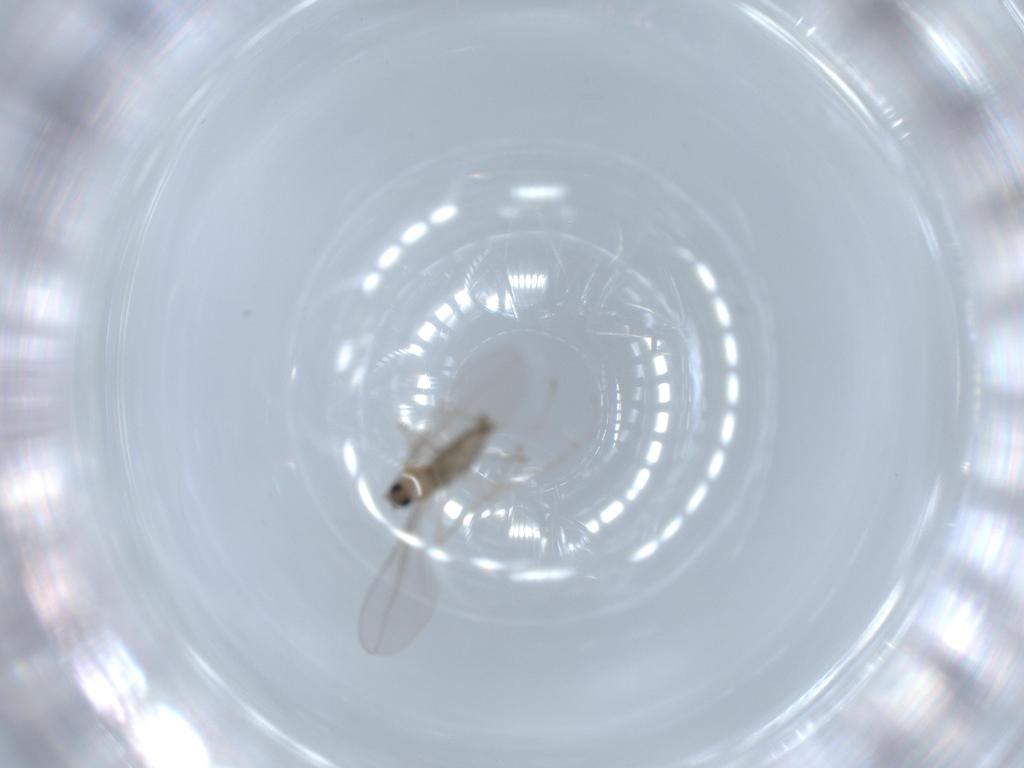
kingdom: Animalia
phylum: Arthropoda
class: Insecta
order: Diptera
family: Cecidomyiidae
